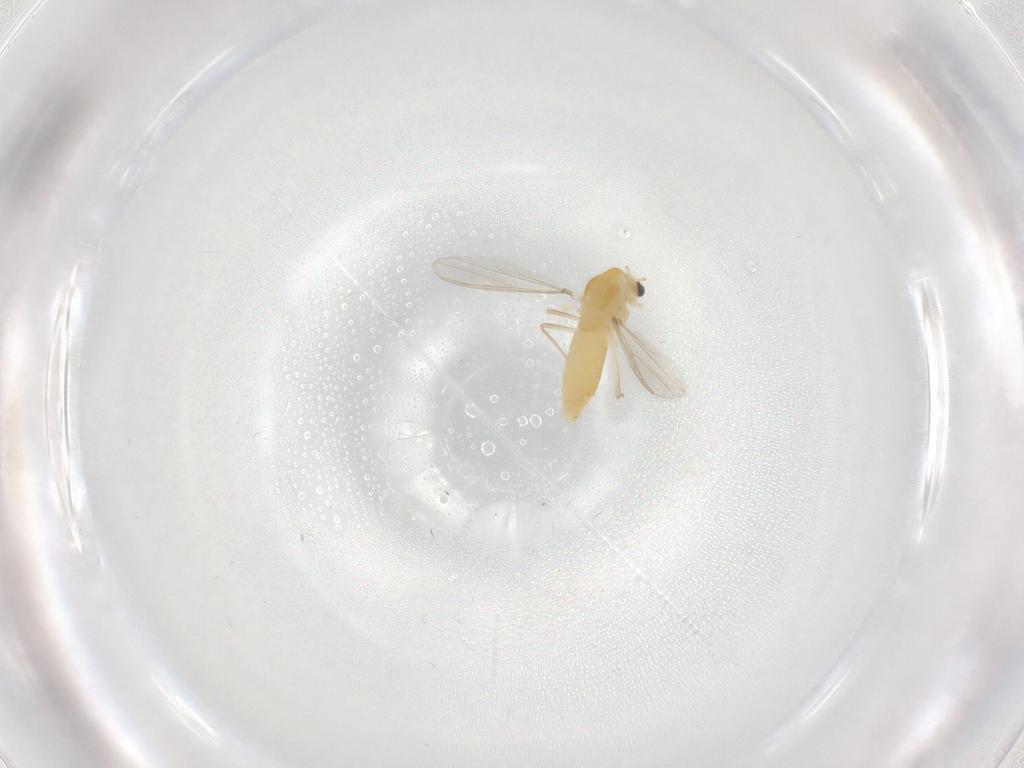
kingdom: Animalia
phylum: Arthropoda
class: Insecta
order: Diptera
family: Chironomidae
